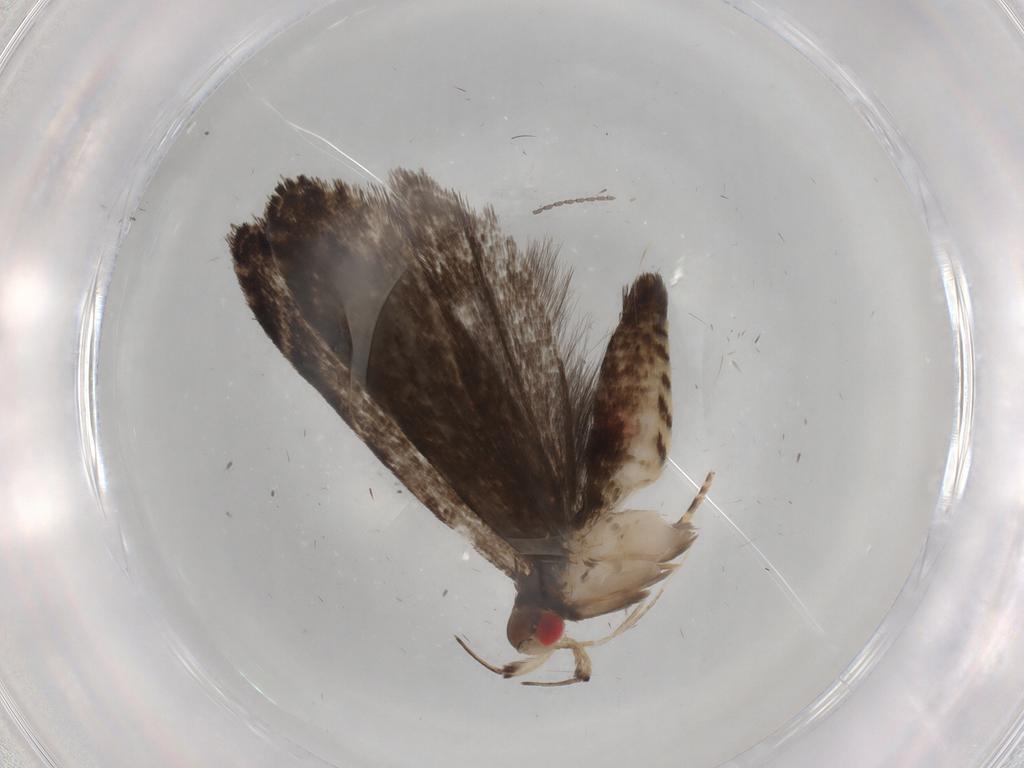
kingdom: Animalia
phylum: Arthropoda
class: Insecta
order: Lepidoptera
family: Gelechiidae
